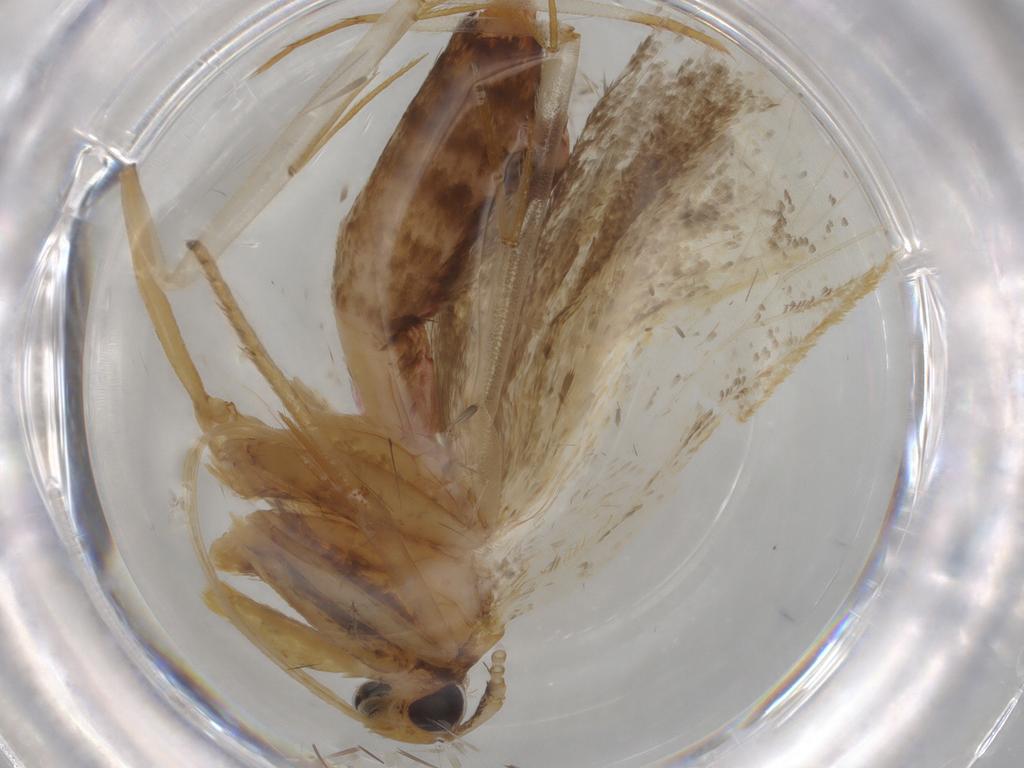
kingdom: Animalia
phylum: Arthropoda
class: Insecta
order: Lepidoptera
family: Lecithoceridae
